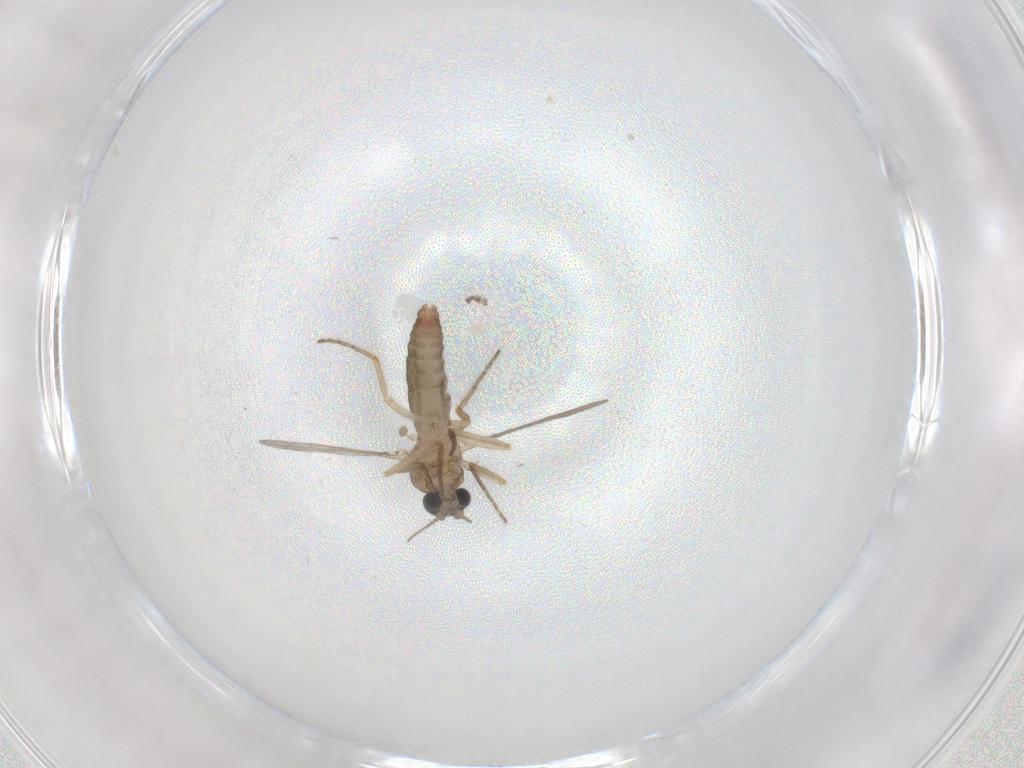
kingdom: Animalia
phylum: Arthropoda
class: Insecta
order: Diptera
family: Ceratopogonidae
